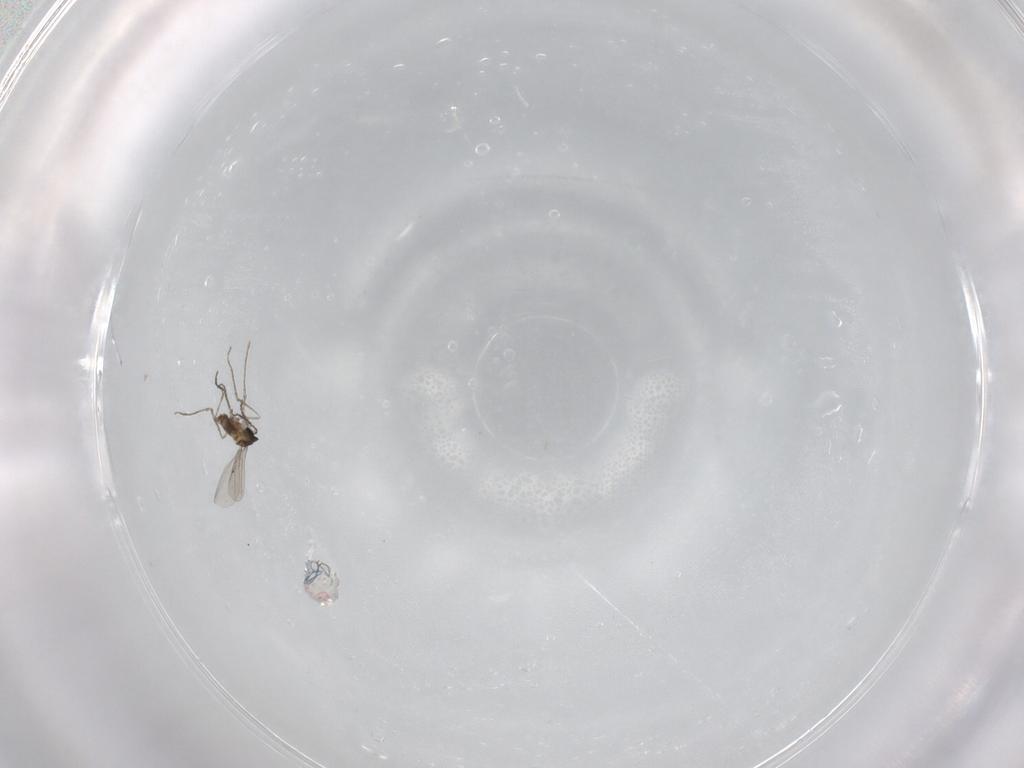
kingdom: Animalia
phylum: Arthropoda
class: Insecta
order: Diptera
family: Cecidomyiidae
